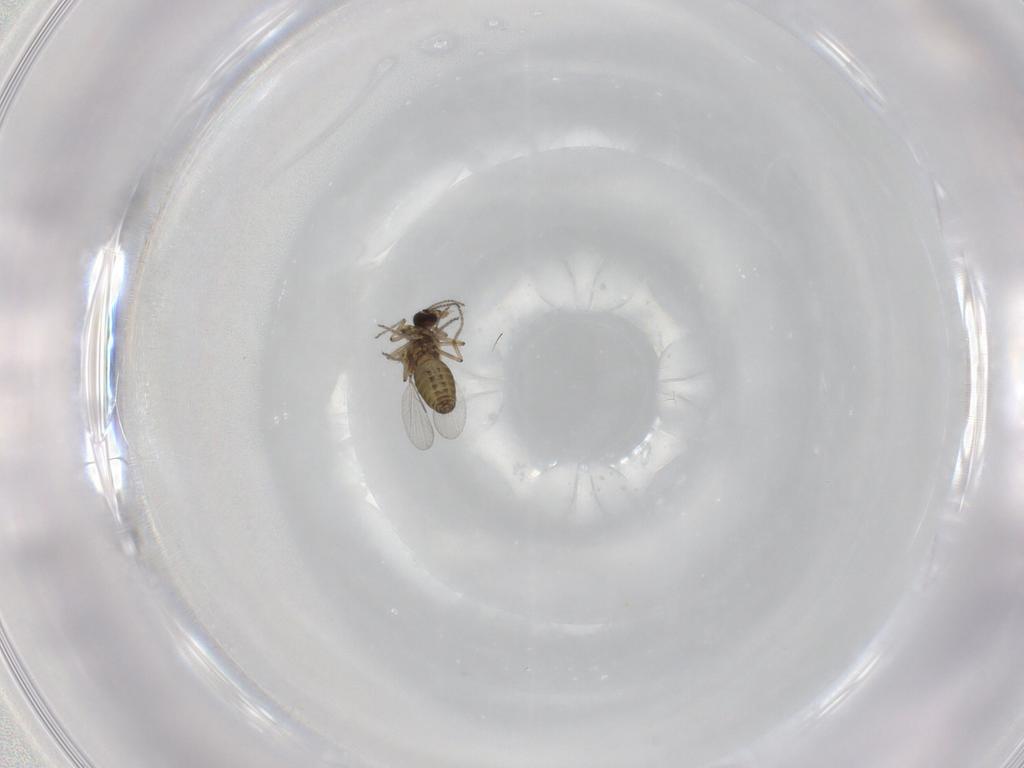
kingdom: Animalia
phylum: Arthropoda
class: Insecta
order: Diptera
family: Ceratopogonidae
